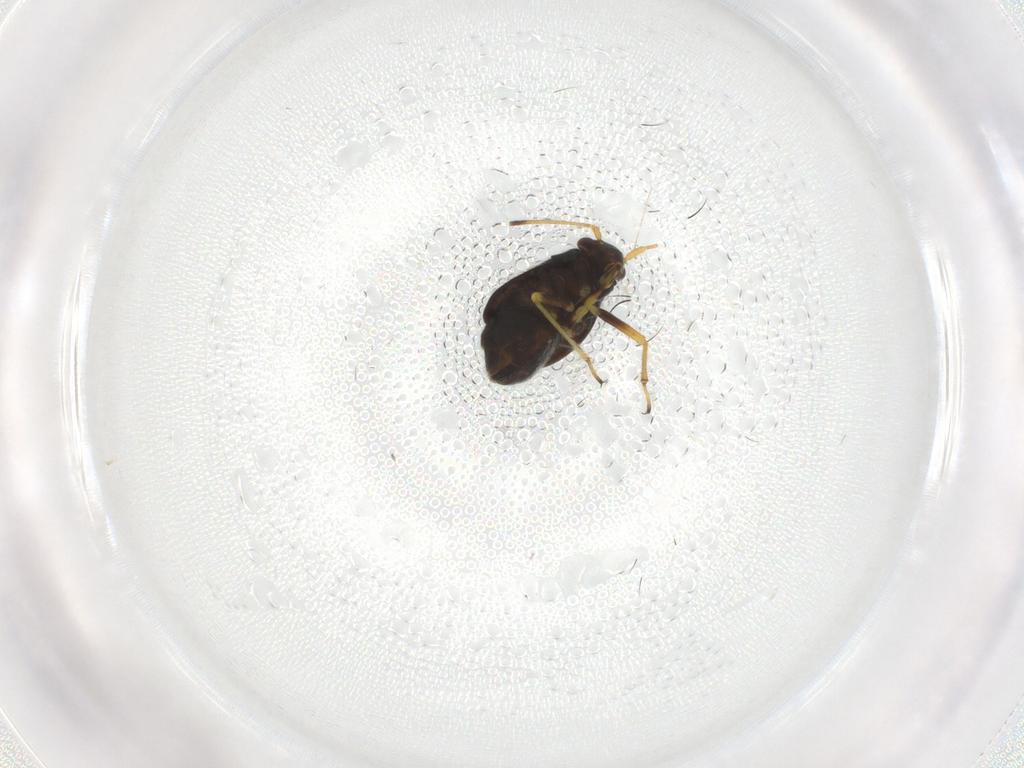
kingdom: Animalia
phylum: Arthropoda
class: Insecta
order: Hemiptera
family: Miridae
